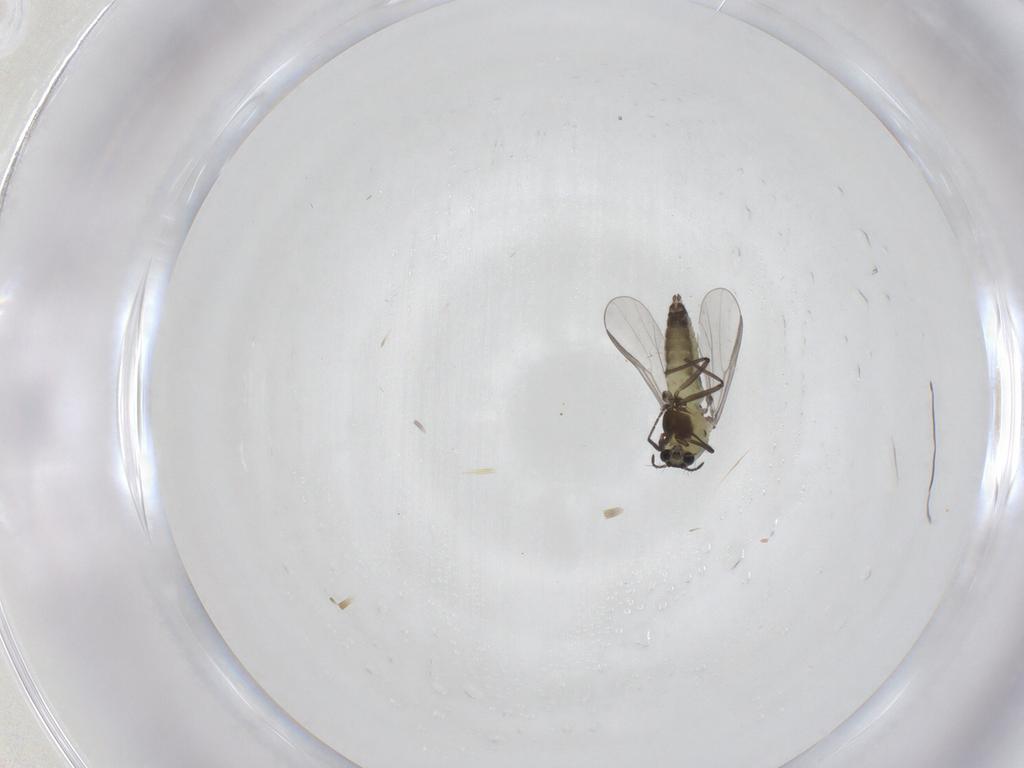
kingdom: Animalia
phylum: Arthropoda
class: Insecta
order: Diptera
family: Chironomidae
